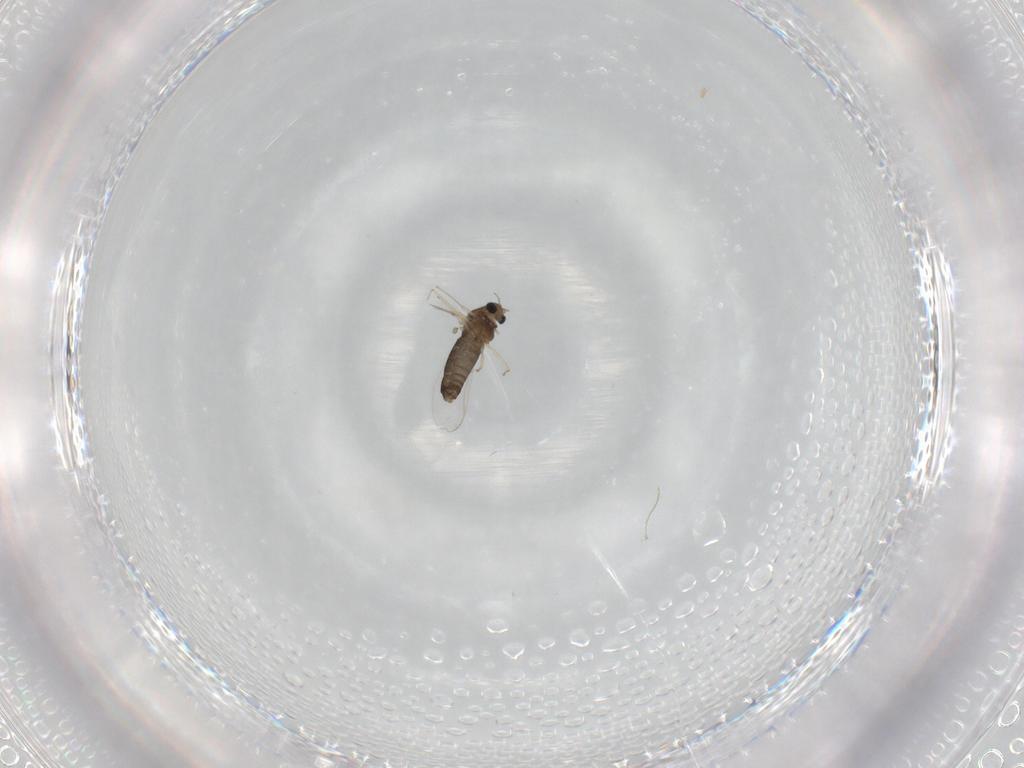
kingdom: Animalia
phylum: Arthropoda
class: Insecta
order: Diptera
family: Chironomidae
